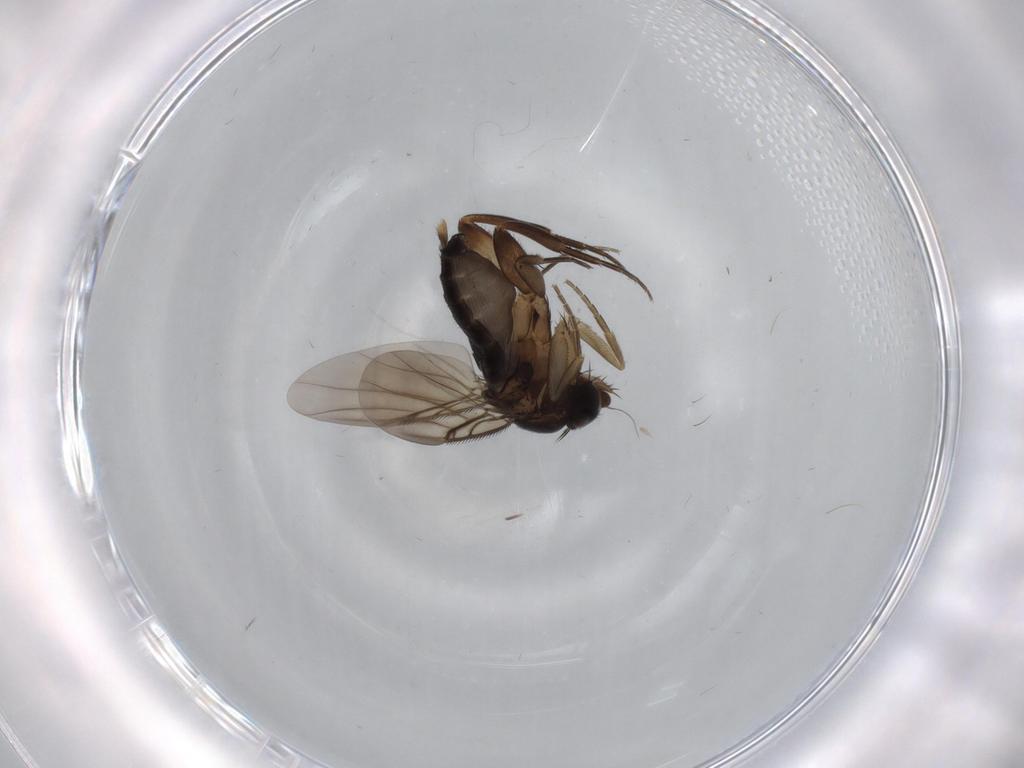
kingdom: Animalia
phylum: Arthropoda
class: Insecta
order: Diptera
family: Phoridae
